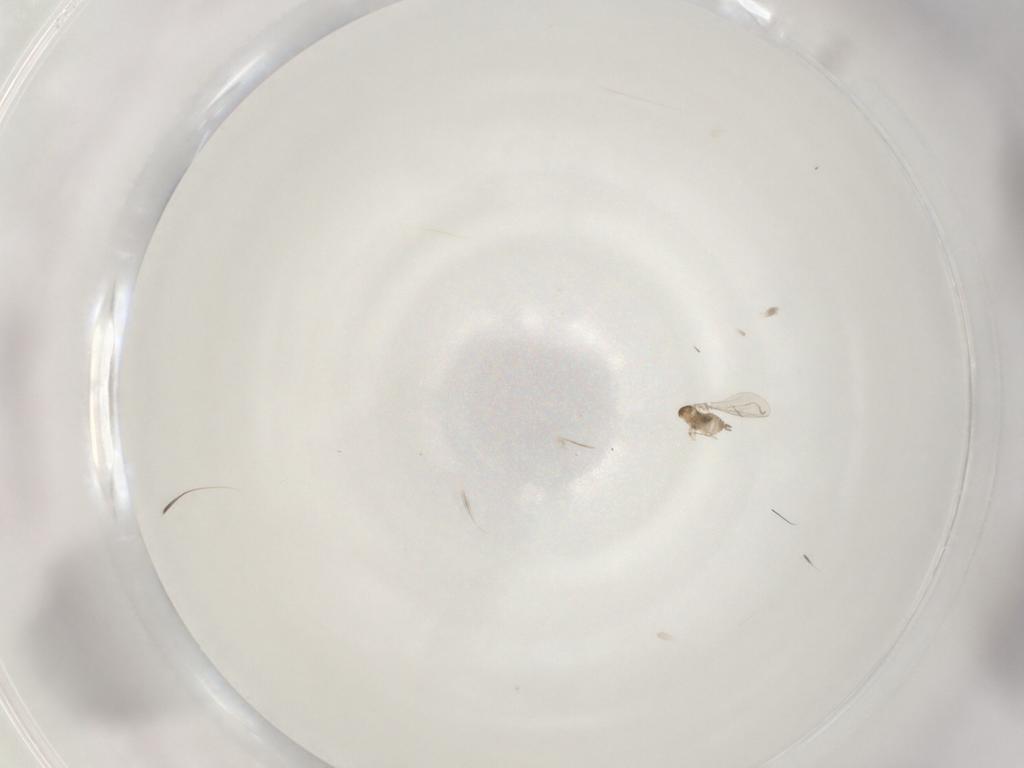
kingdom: Animalia
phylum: Arthropoda
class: Insecta
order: Diptera
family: Cecidomyiidae
